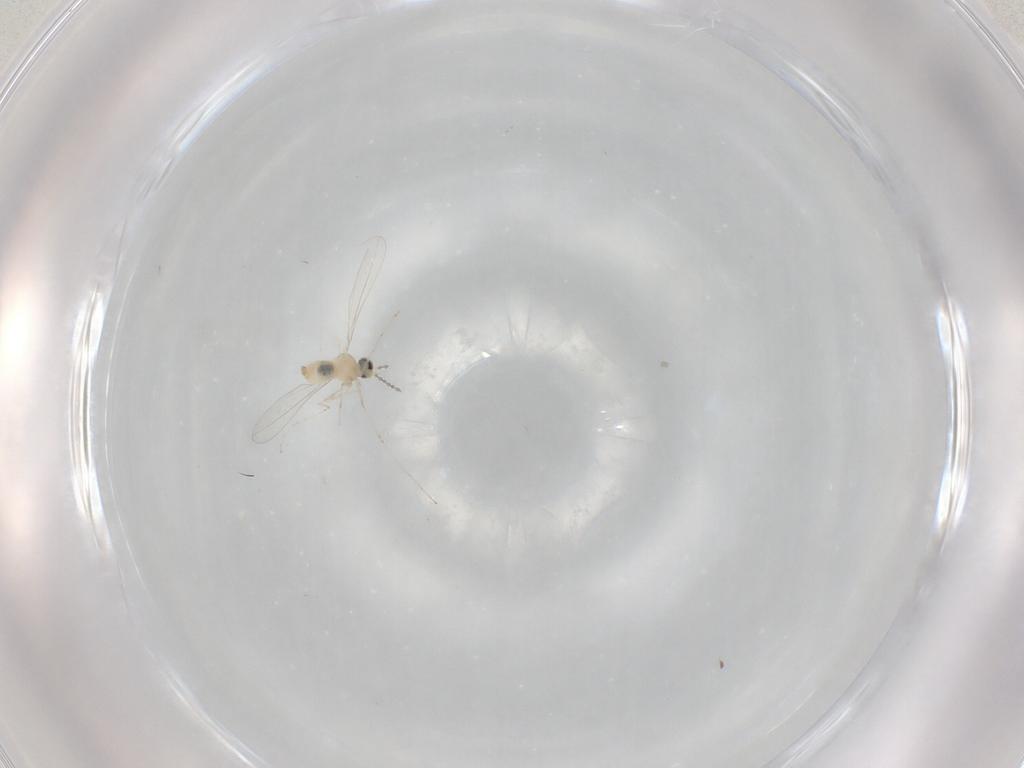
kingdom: Animalia
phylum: Arthropoda
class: Insecta
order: Diptera
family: Cecidomyiidae
